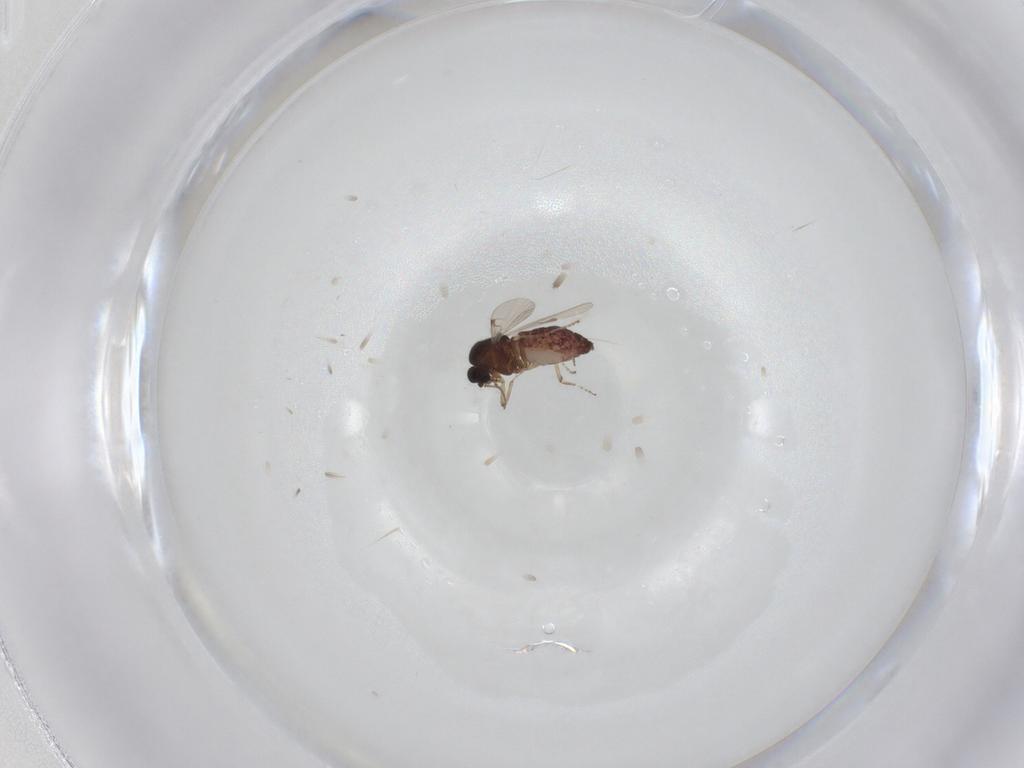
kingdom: Animalia
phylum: Arthropoda
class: Insecta
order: Diptera
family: Ceratopogonidae
